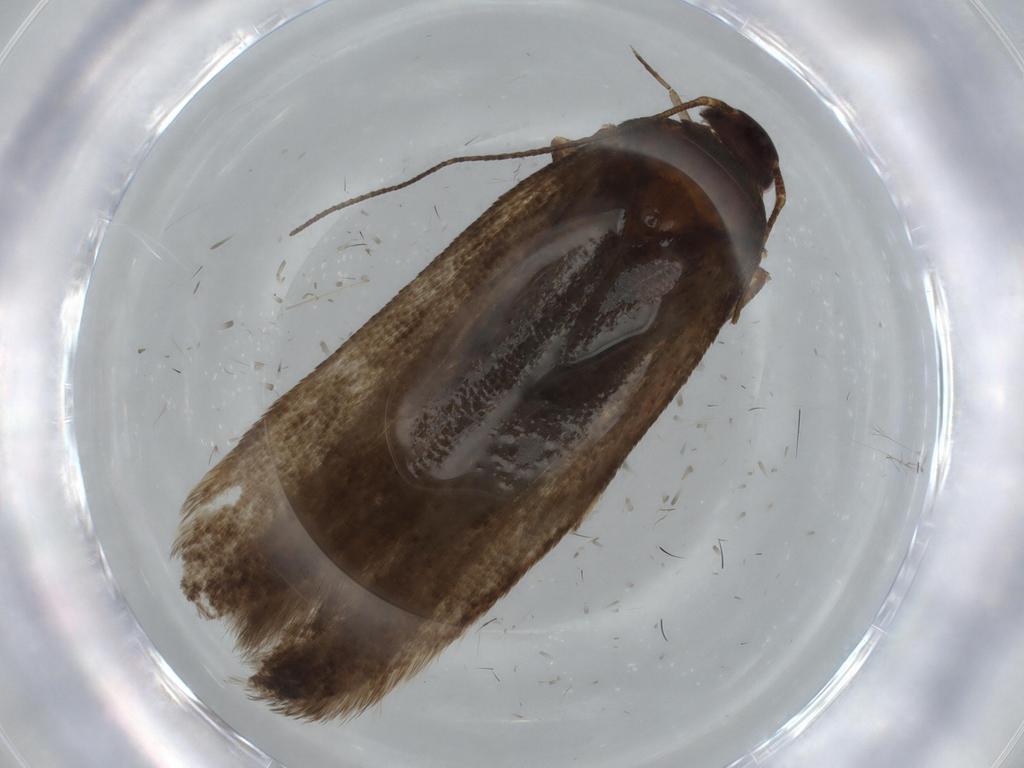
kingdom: Animalia
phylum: Arthropoda
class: Insecta
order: Lepidoptera
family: Gelechiidae
